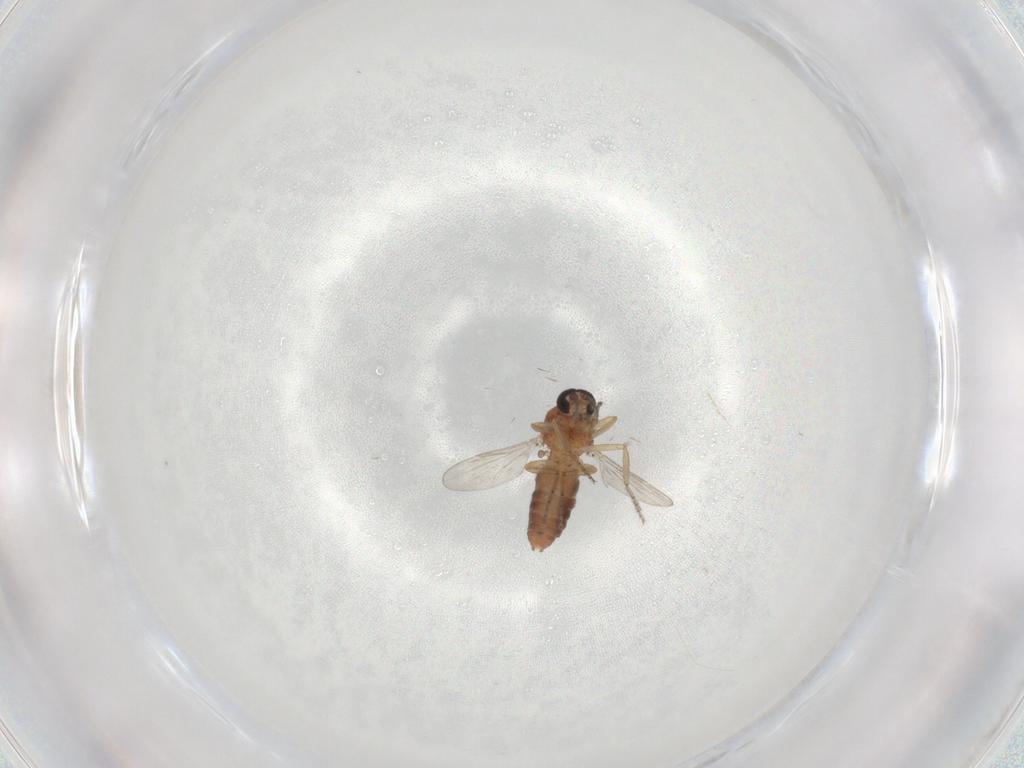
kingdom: Animalia
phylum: Arthropoda
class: Insecta
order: Diptera
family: Ceratopogonidae
